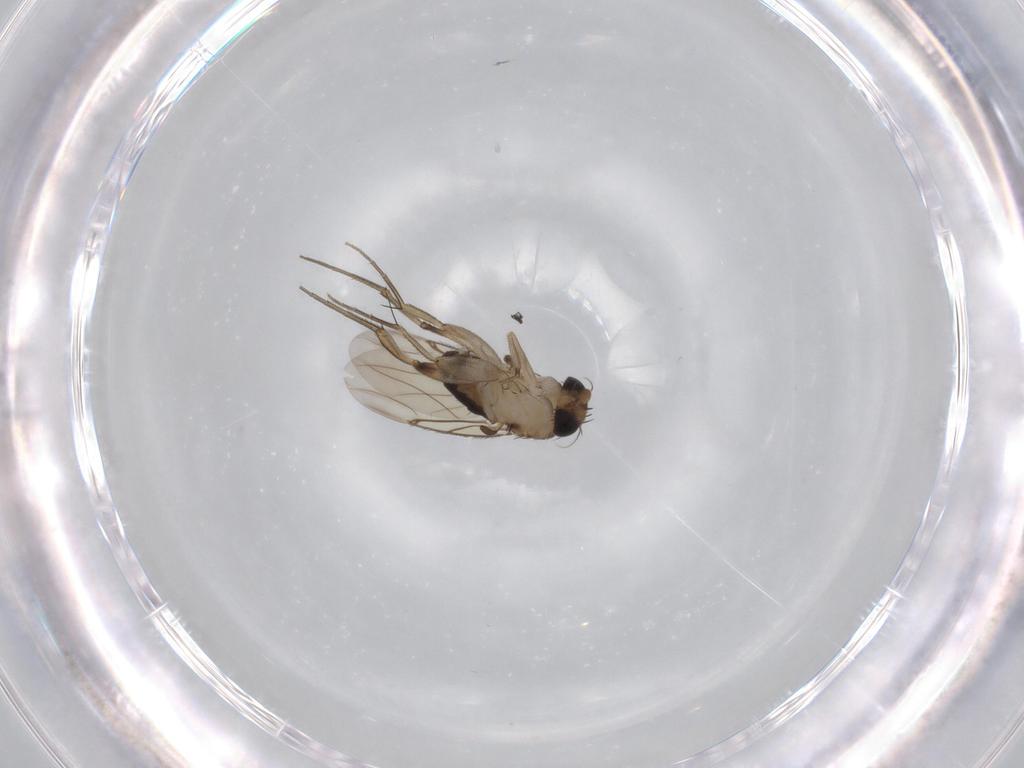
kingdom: Animalia
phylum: Arthropoda
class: Insecta
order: Diptera
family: Phoridae
